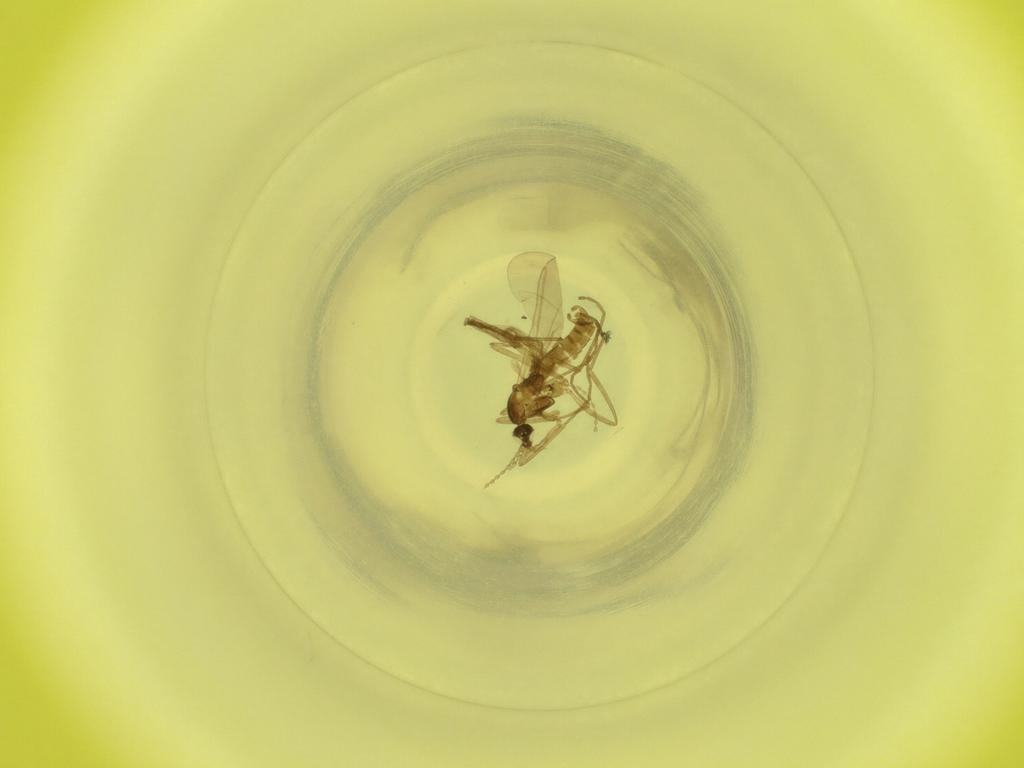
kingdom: Animalia
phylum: Arthropoda
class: Insecta
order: Diptera
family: Cecidomyiidae
